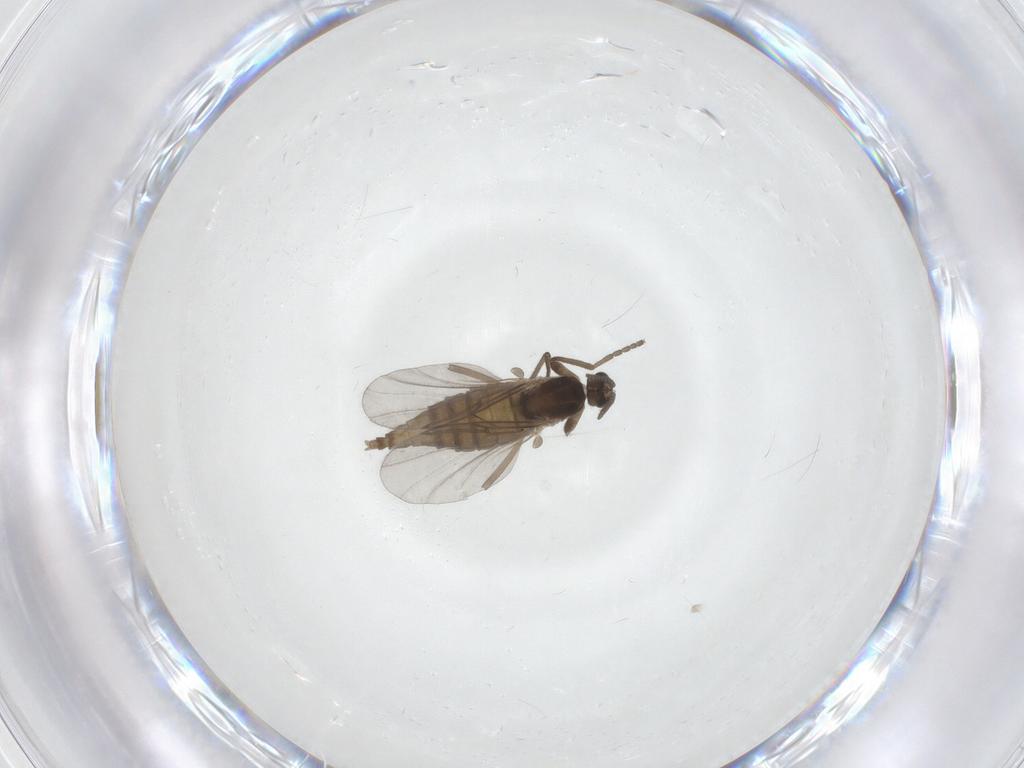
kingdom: Animalia
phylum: Arthropoda
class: Insecta
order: Diptera
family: Cecidomyiidae
